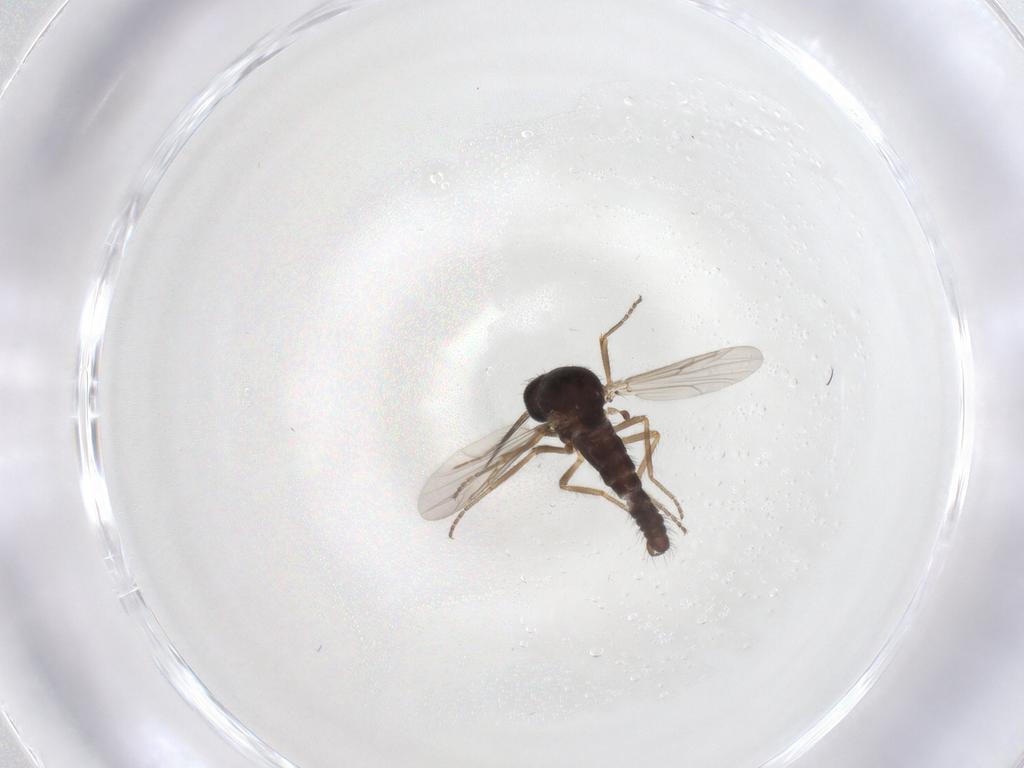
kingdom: Animalia
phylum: Arthropoda
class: Insecta
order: Diptera
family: Ceratopogonidae
